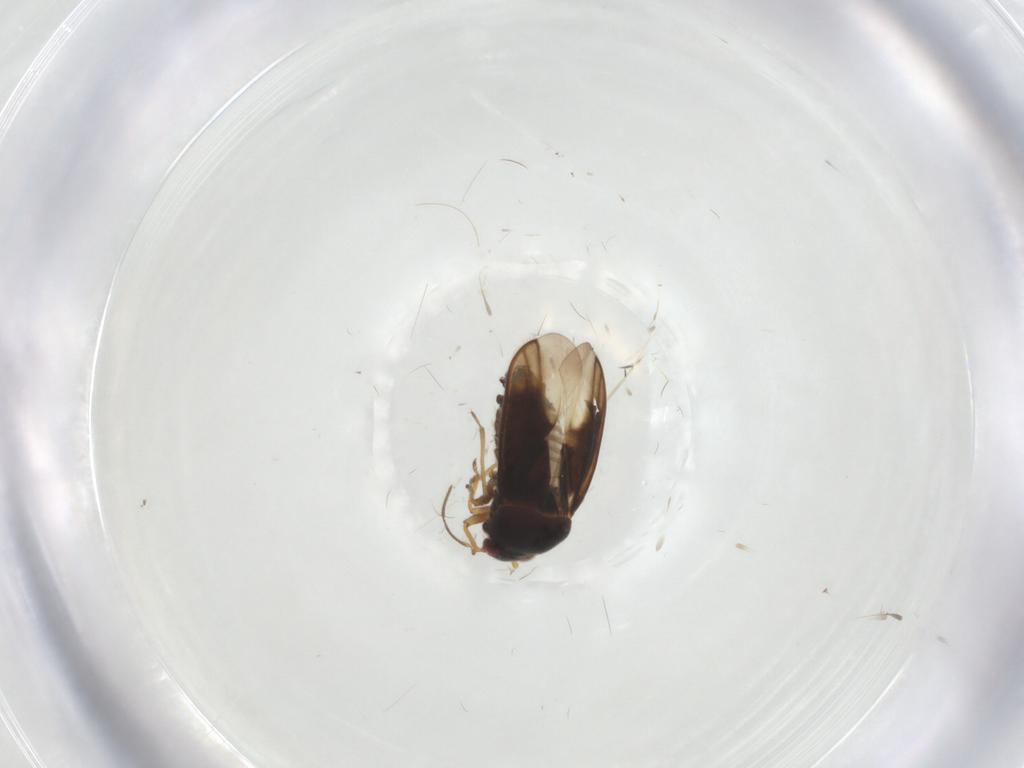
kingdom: Animalia
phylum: Arthropoda
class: Insecta
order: Hemiptera
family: Schizopteridae
